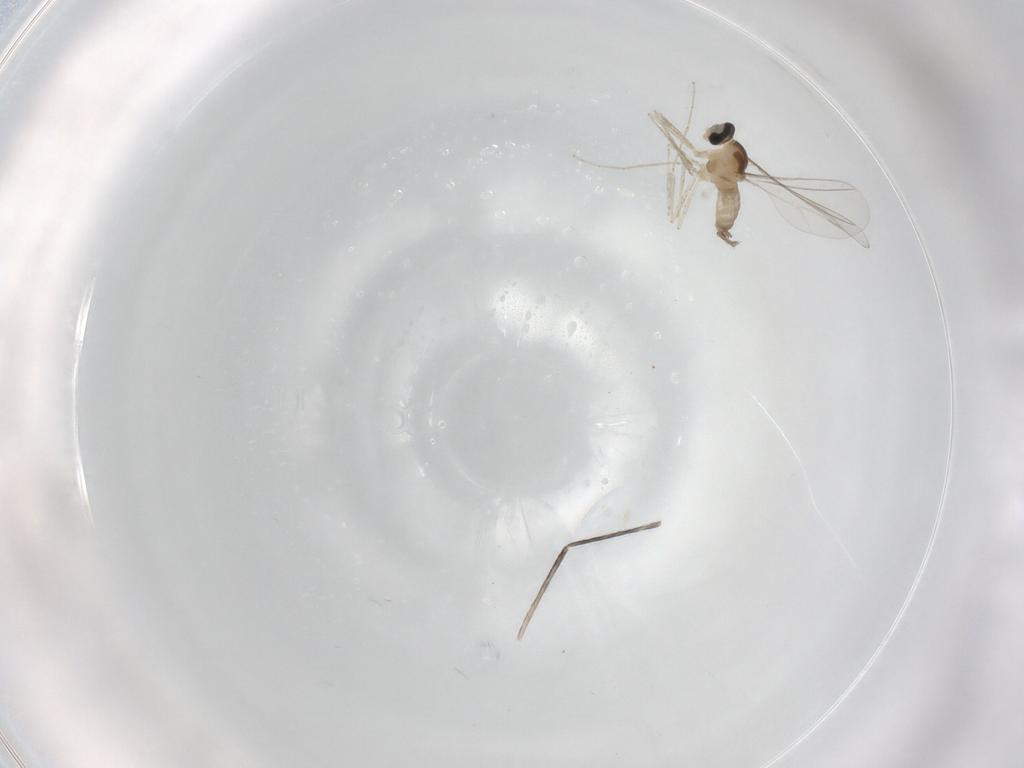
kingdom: Animalia
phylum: Arthropoda
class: Insecta
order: Diptera
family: Cecidomyiidae
